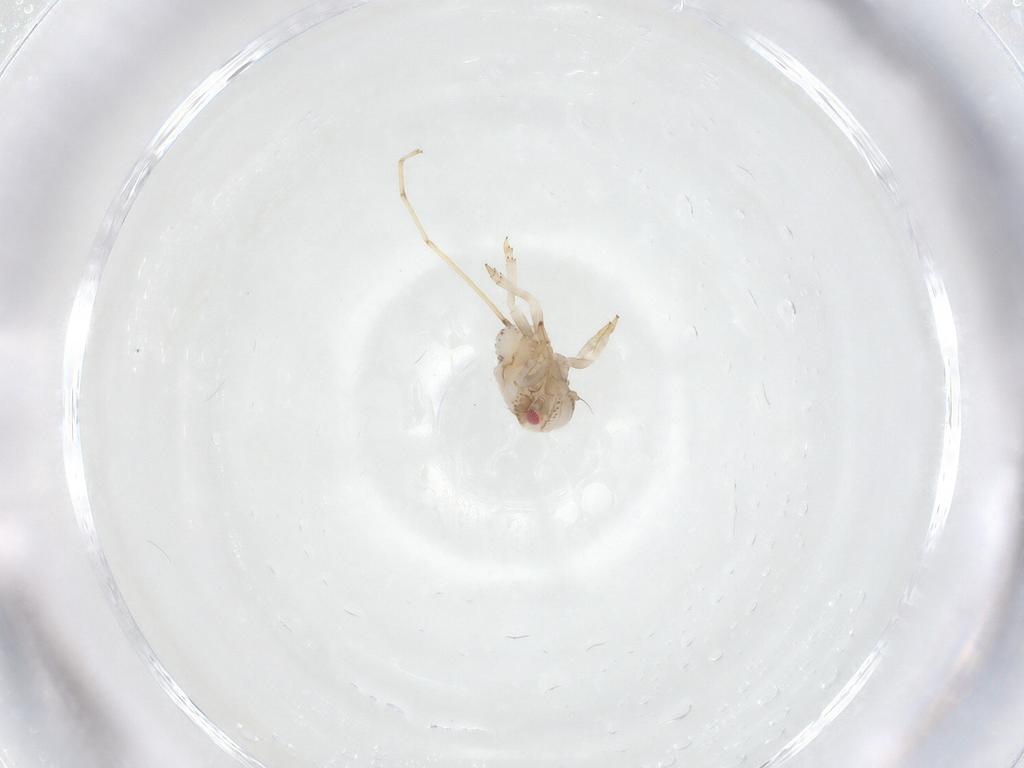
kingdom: Animalia
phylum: Arthropoda
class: Insecta
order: Hemiptera
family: Acanaloniidae
